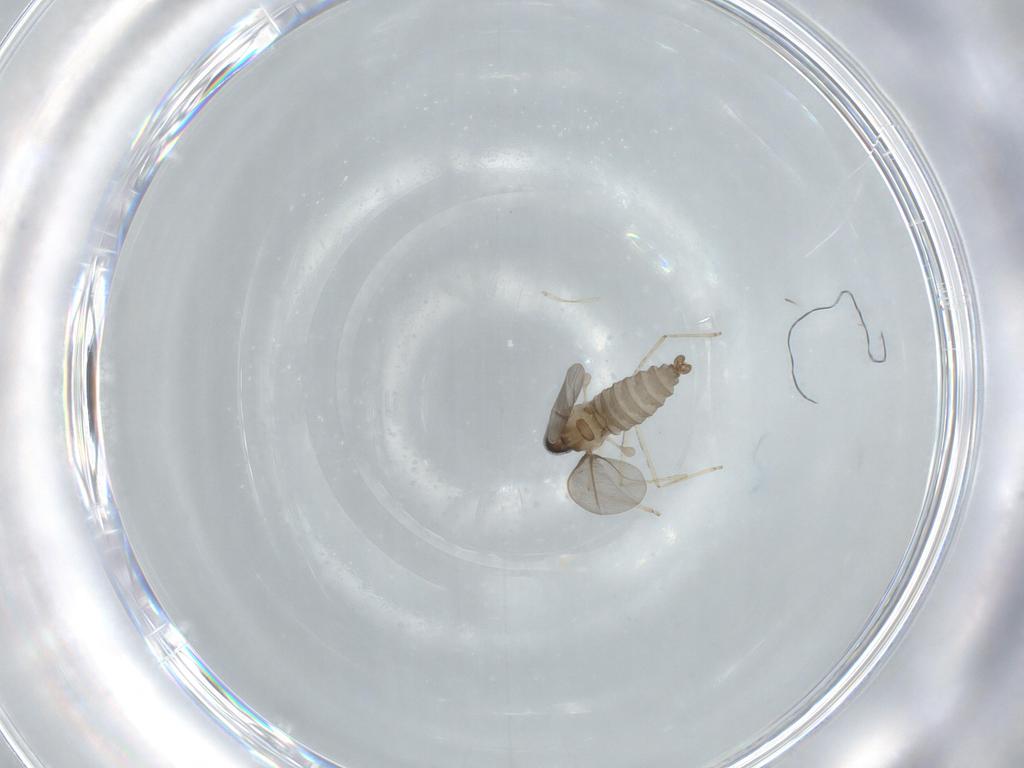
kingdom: Animalia
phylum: Arthropoda
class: Insecta
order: Diptera
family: Cecidomyiidae
